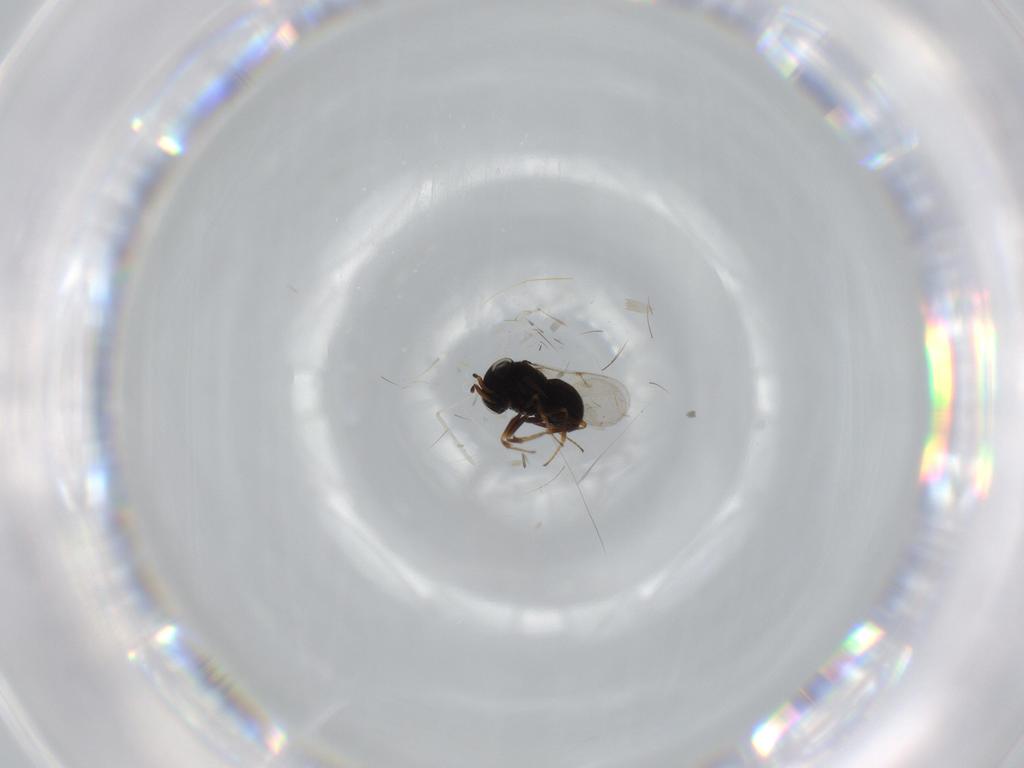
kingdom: Animalia
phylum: Arthropoda
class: Insecta
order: Hymenoptera
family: Scelionidae
